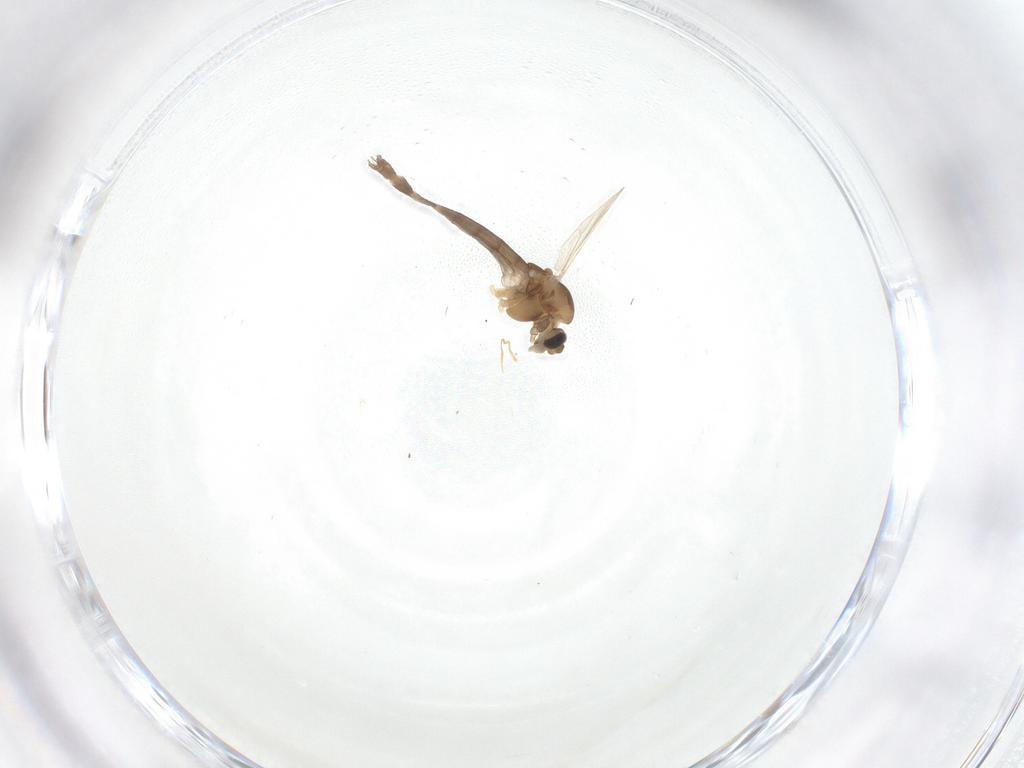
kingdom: Animalia
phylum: Arthropoda
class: Insecta
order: Diptera
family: Chironomidae
